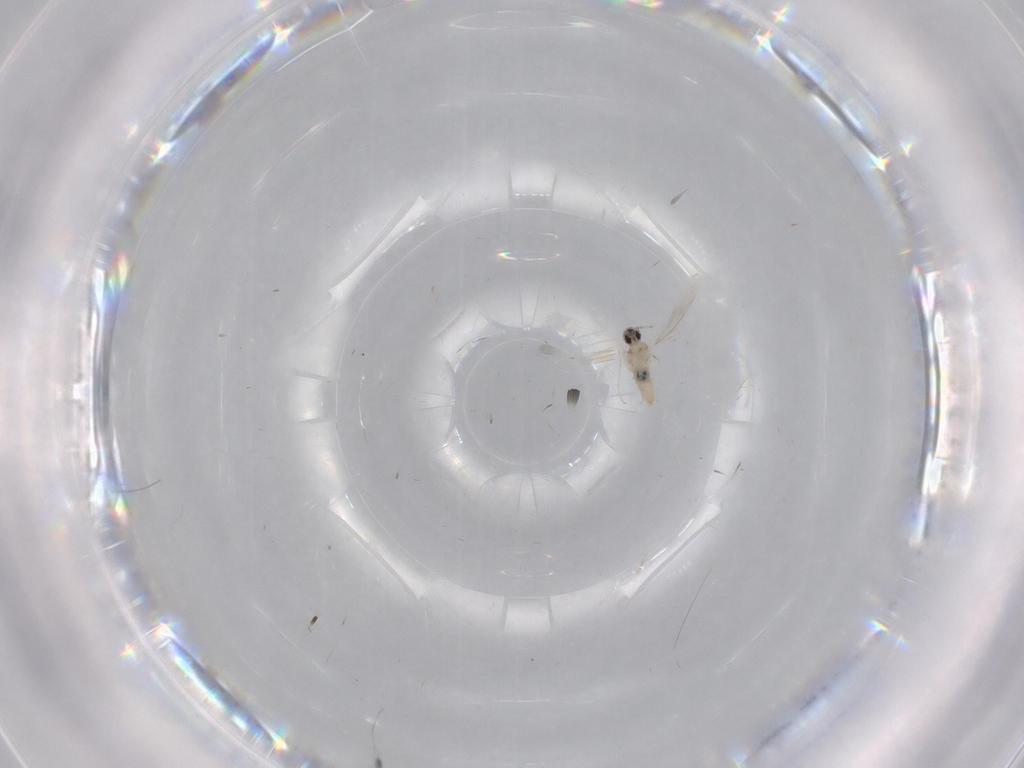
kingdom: Animalia
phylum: Arthropoda
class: Insecta
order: Diptera
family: Cecidomyiidae
